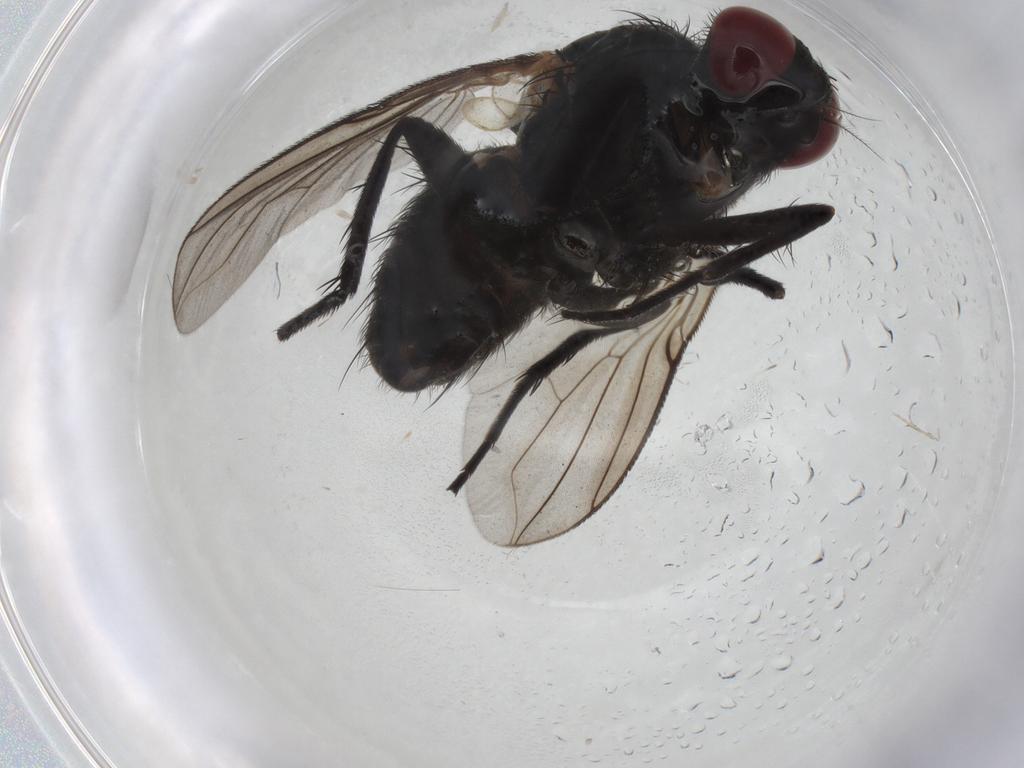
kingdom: Animalia
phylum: Arthropoda
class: Insecta
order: Diptera
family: Calliphoridae
